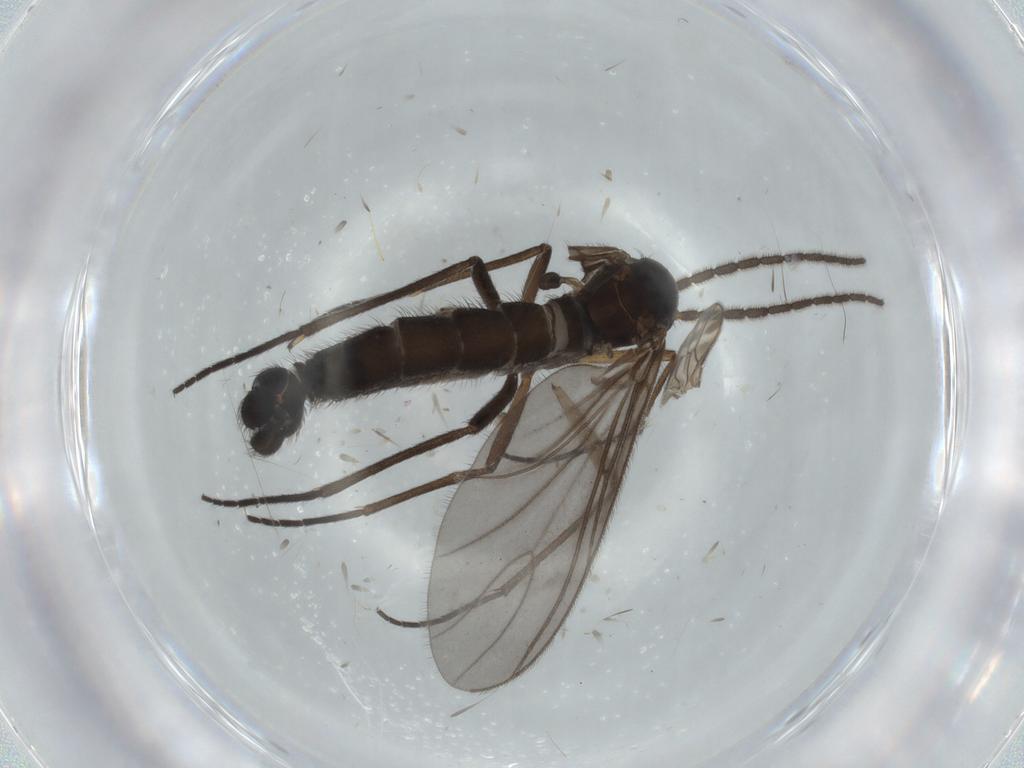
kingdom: Animalia
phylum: Arthropoda
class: Insecta
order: Diptera
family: Sciaridae
